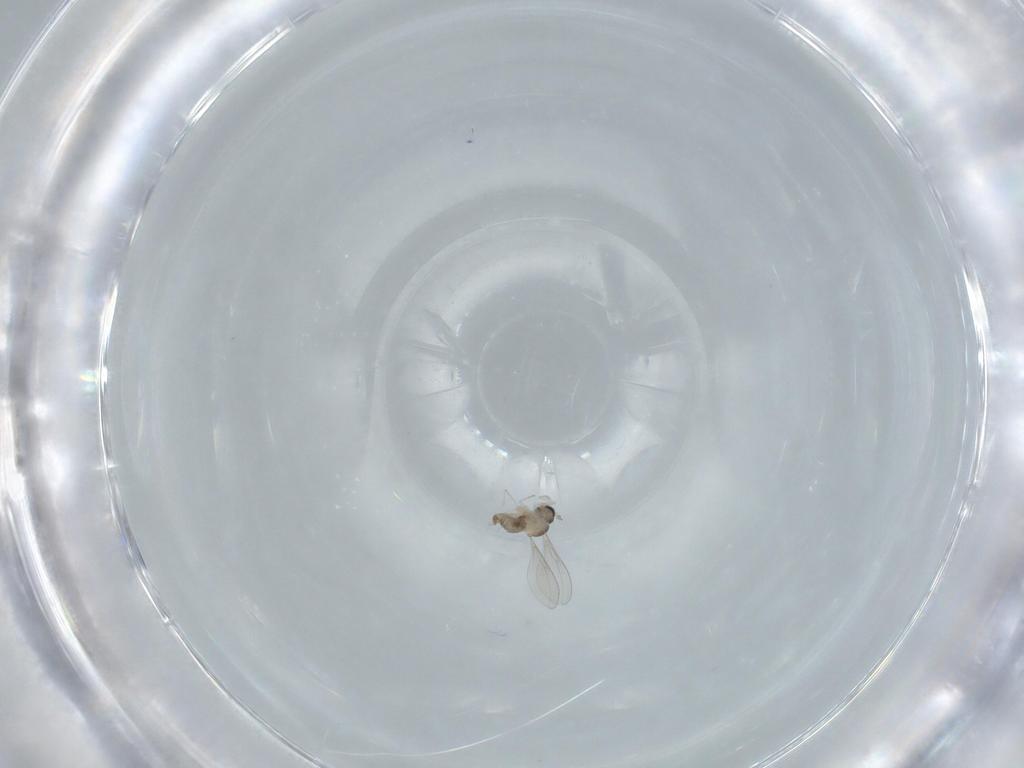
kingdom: Animalia
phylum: Arthropoda
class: Insecta
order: Diptera
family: Cecidomyiidae
